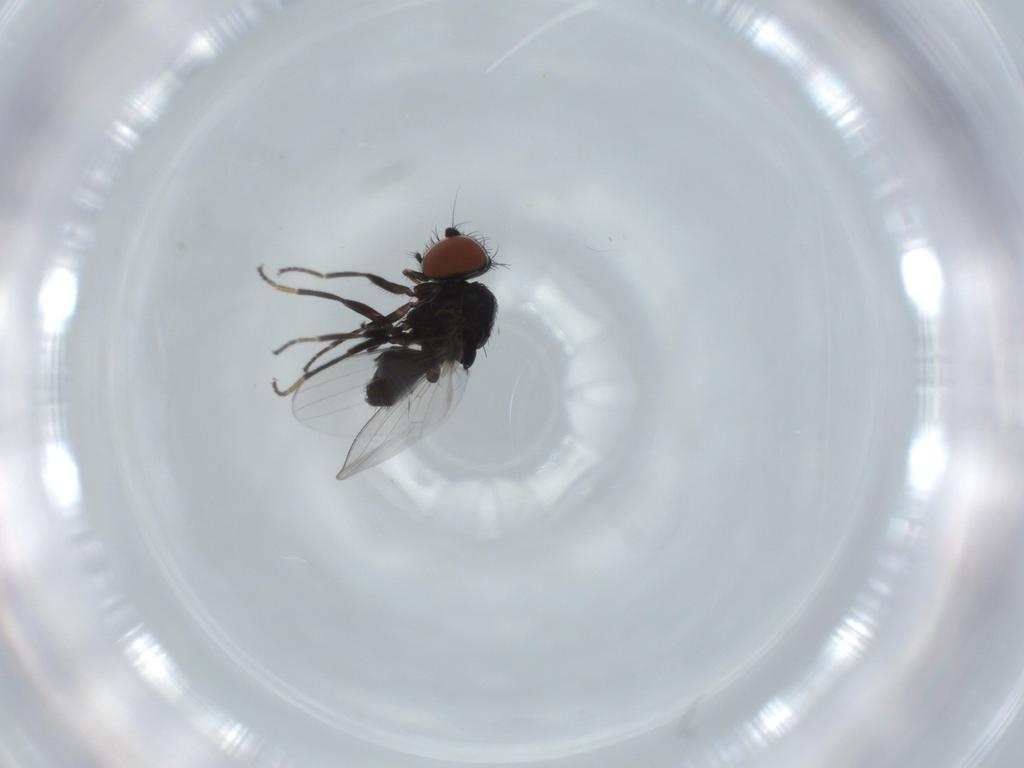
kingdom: Animalia
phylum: Arthropoda
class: Insecta
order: Diptera
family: Milichiidae
